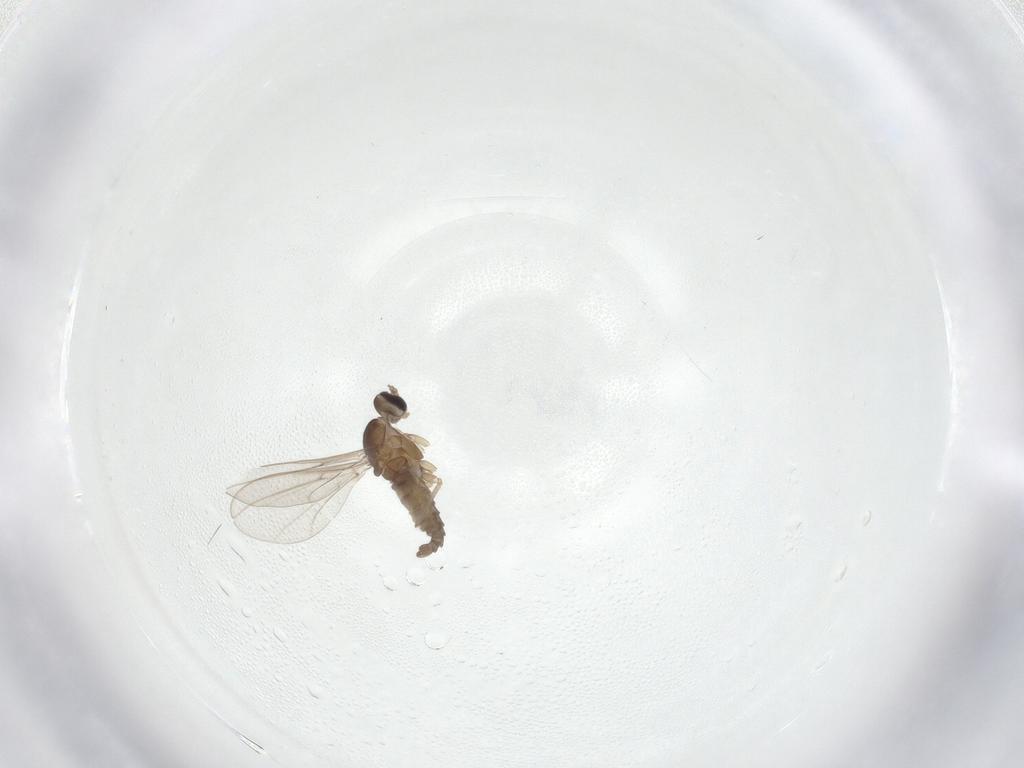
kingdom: Animalia
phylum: Arthropoda
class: Insecta
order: Diptera
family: Cecidomyiidae
